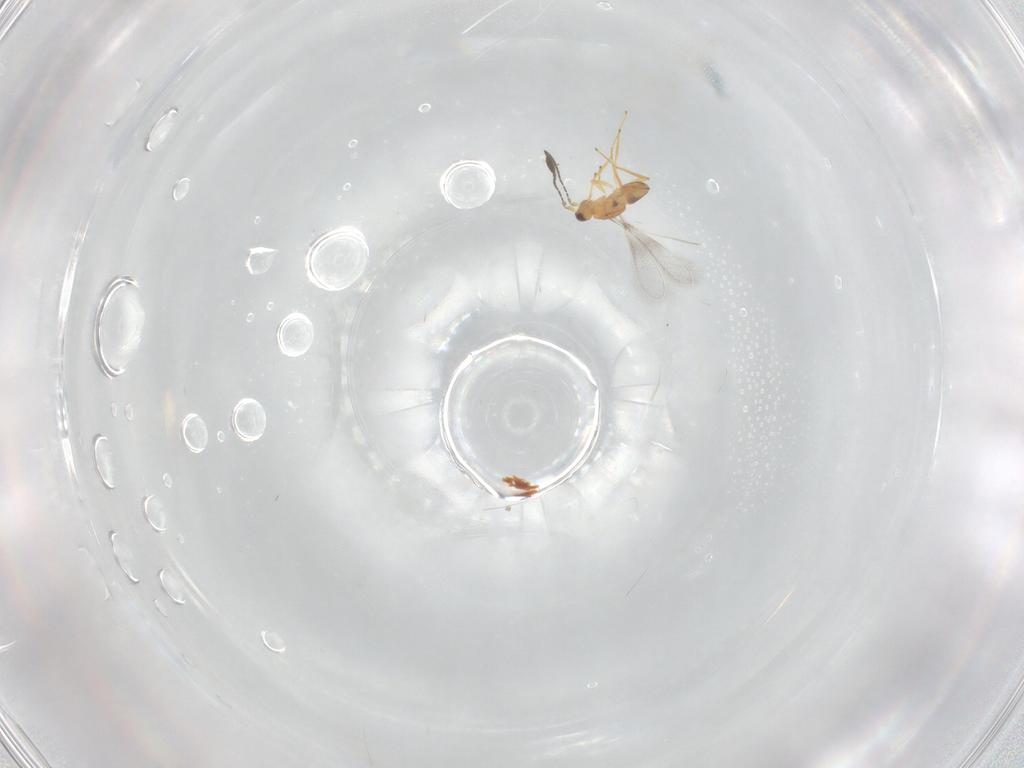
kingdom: Animalia
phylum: Arthropoda
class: Insecta
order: Hymenoptera
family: Mymaridae
